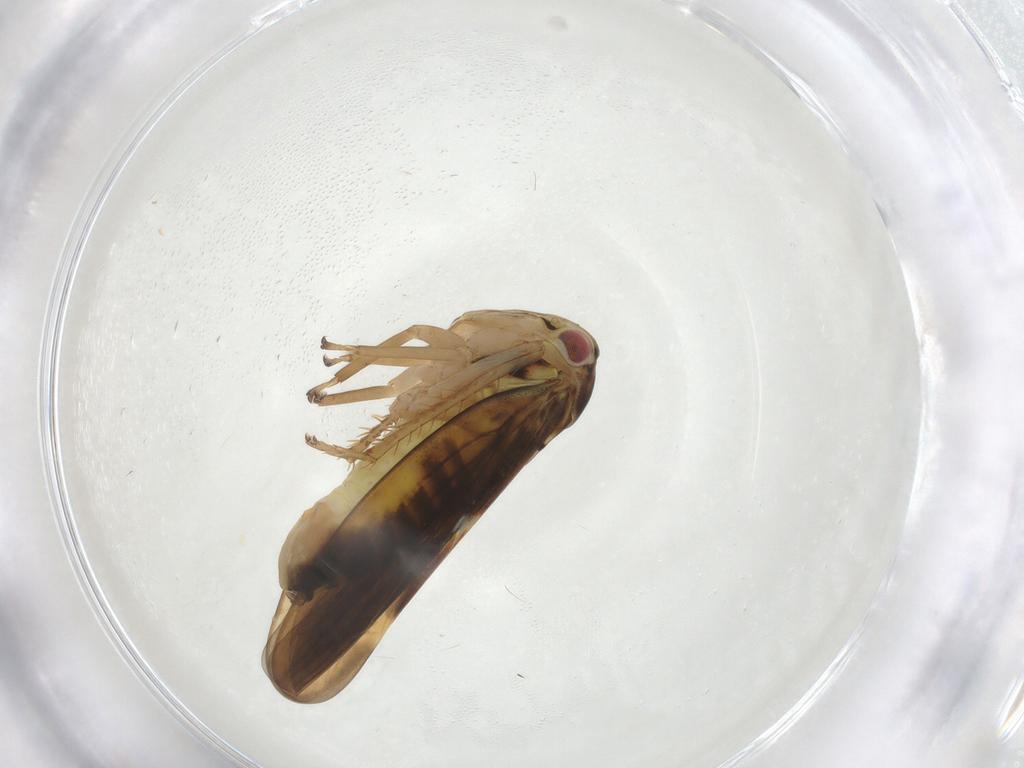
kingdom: Animalia
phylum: Arthropoda
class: Insecta
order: Hemiptera
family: Cicadellidae
